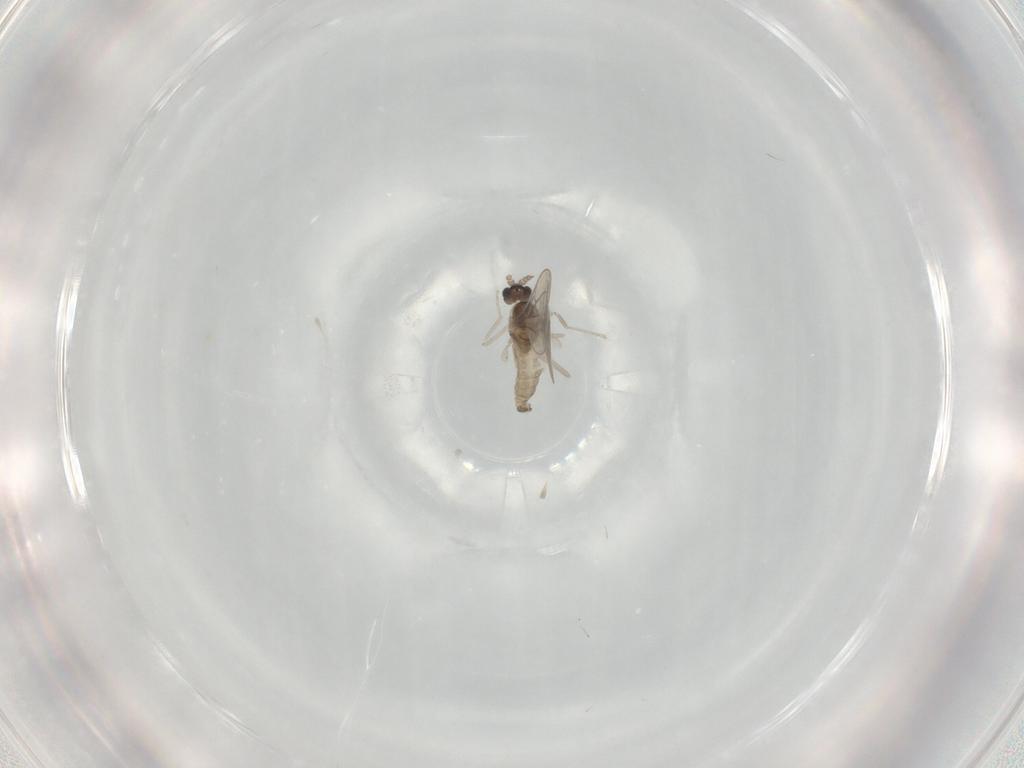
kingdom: Animalia
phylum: Arthropoda
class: Insecta
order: Diptera
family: Cecidomyiidae
